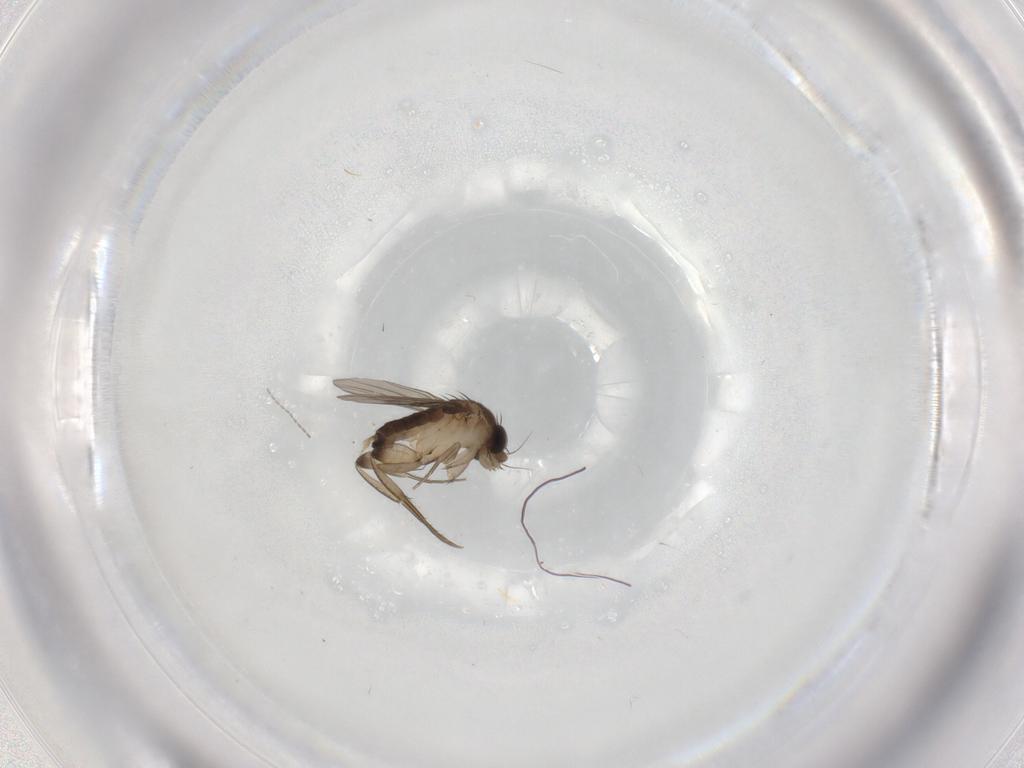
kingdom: Animalia
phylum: Arthropoda
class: Insecta
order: Diptera
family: Phoridae
